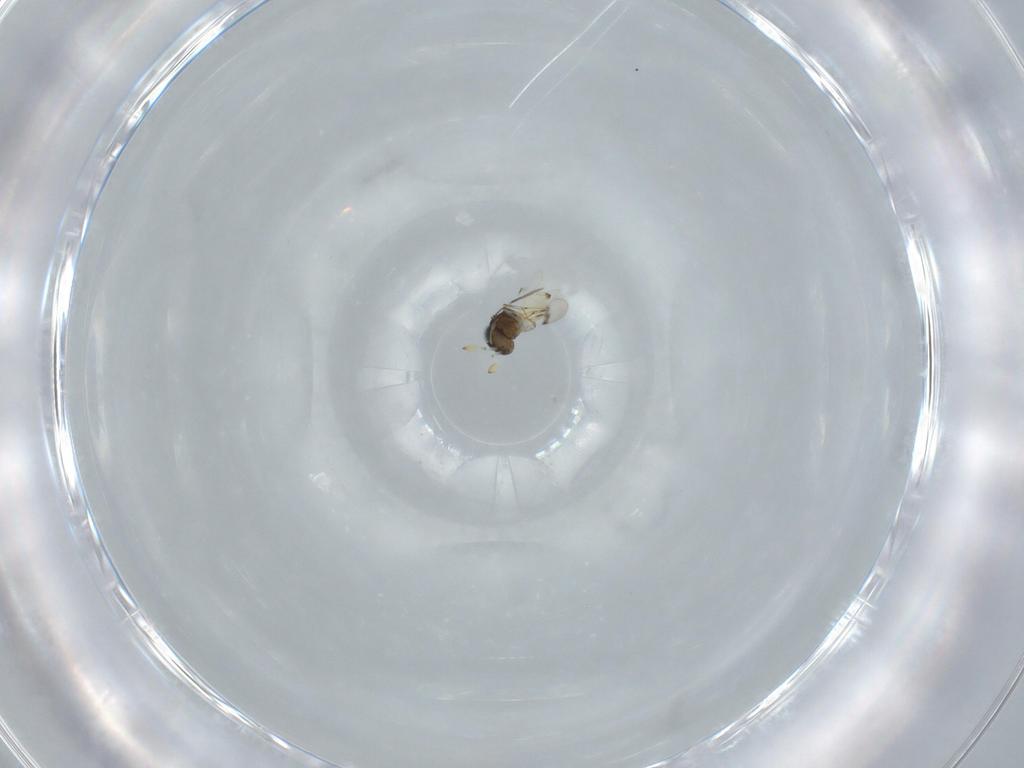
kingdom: Animalia
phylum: Arthropoda
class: Insecta
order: Hymenoptera
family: Scelionidae
